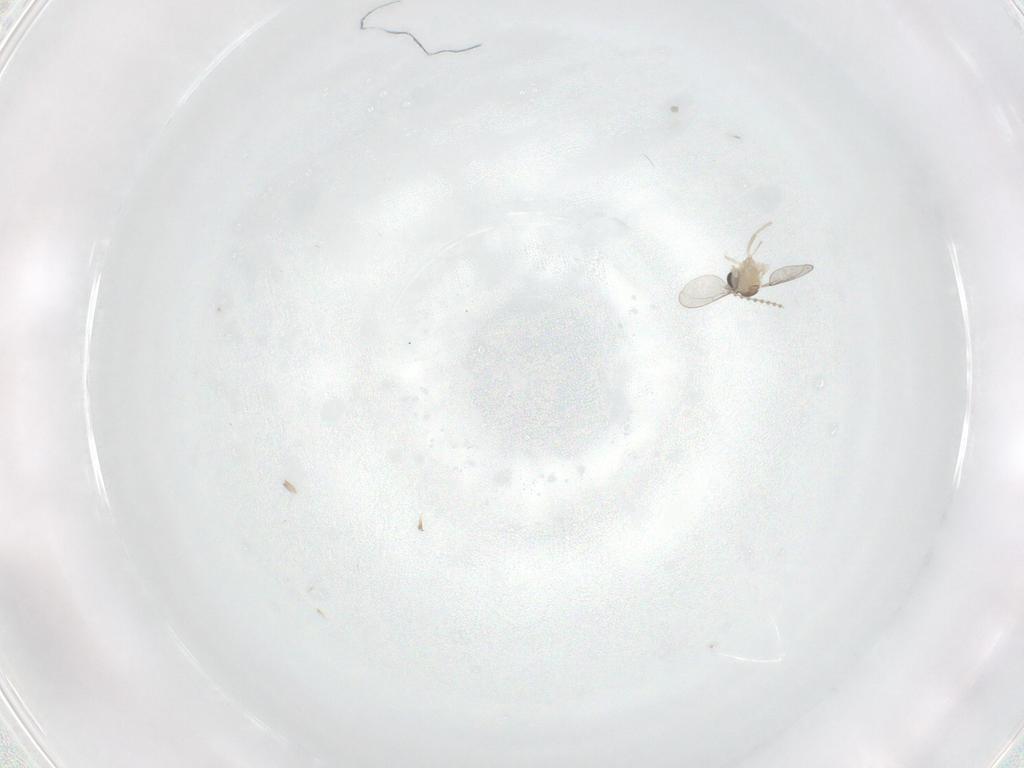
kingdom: Animalia
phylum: Arthropoda
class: Insecta
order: Diptera
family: Cecidomyiidae
